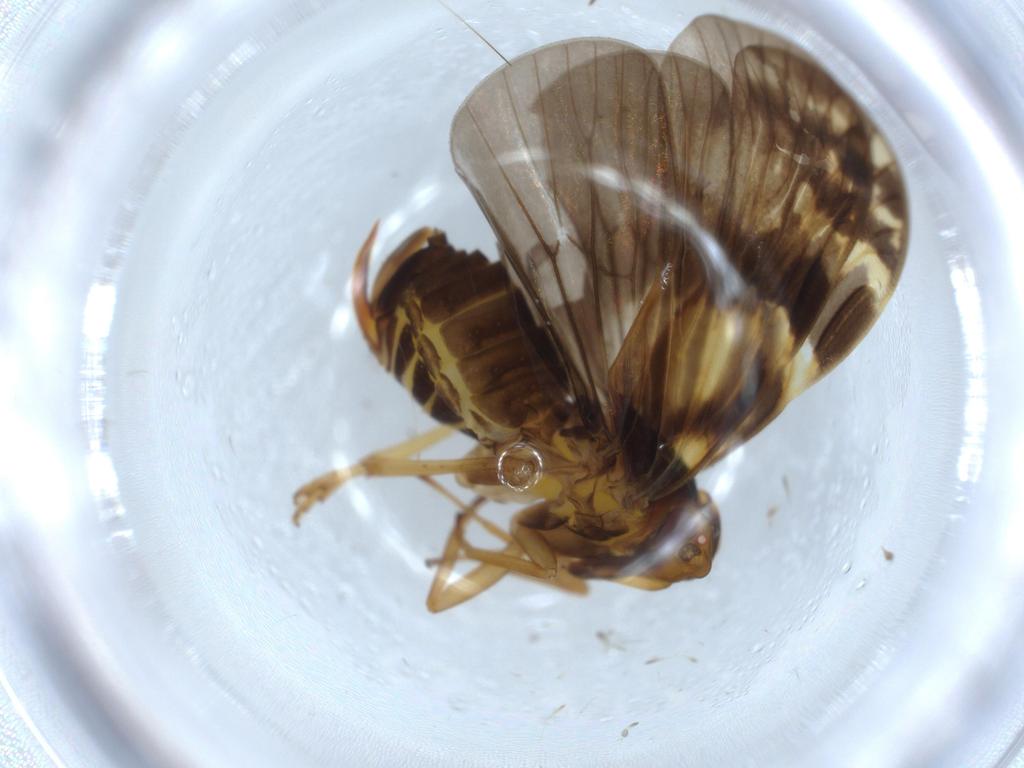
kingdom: Animalia
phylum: Arthropoda
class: Insecta
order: Hemiptera
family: Cixiidae
